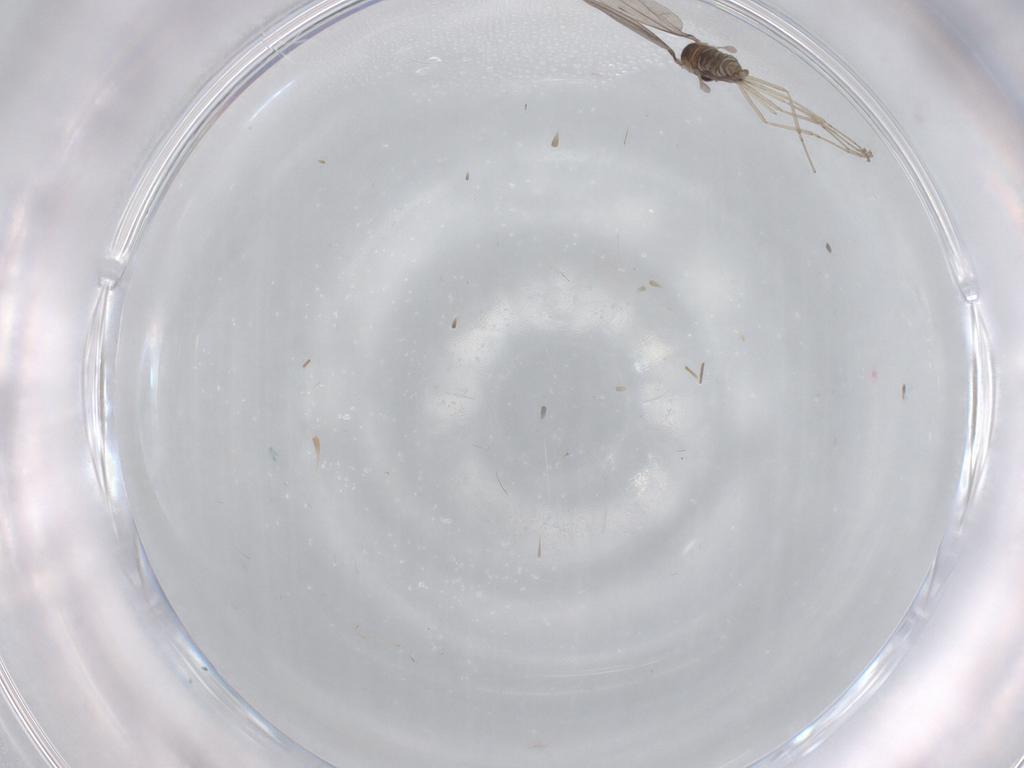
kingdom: Animalia
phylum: Arthropoda
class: Insecta
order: Diptera
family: Cecidomyiidae
